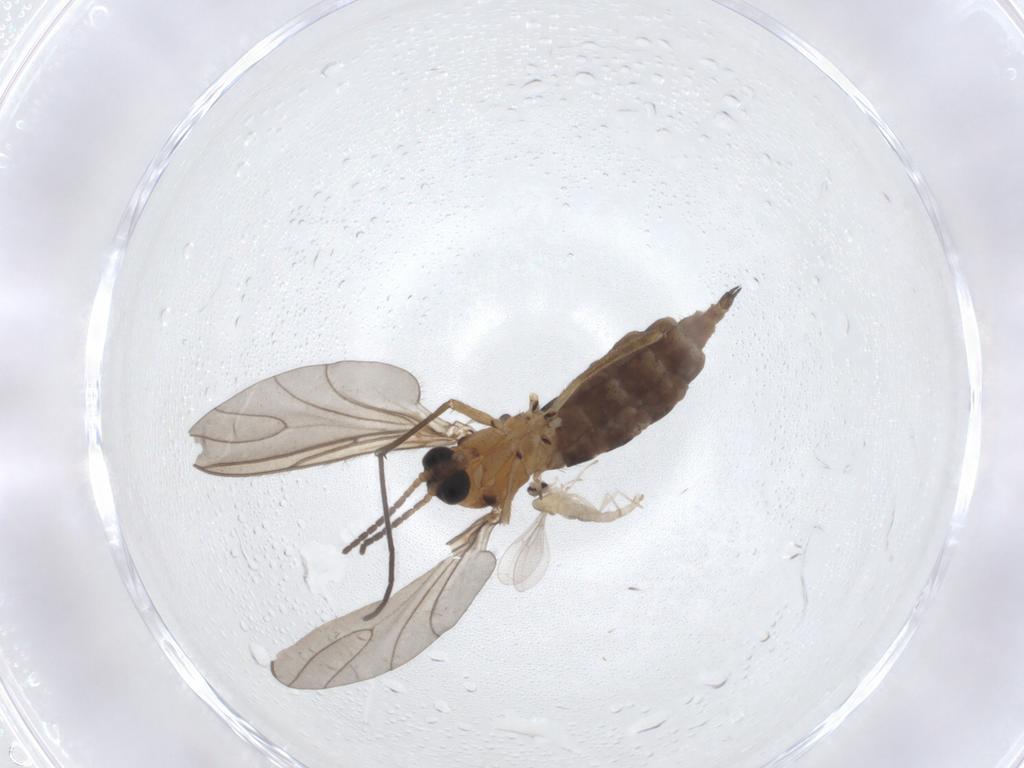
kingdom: Animalia
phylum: Arthropoda
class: Insecta
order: Diptera
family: Cecidomyiidae
